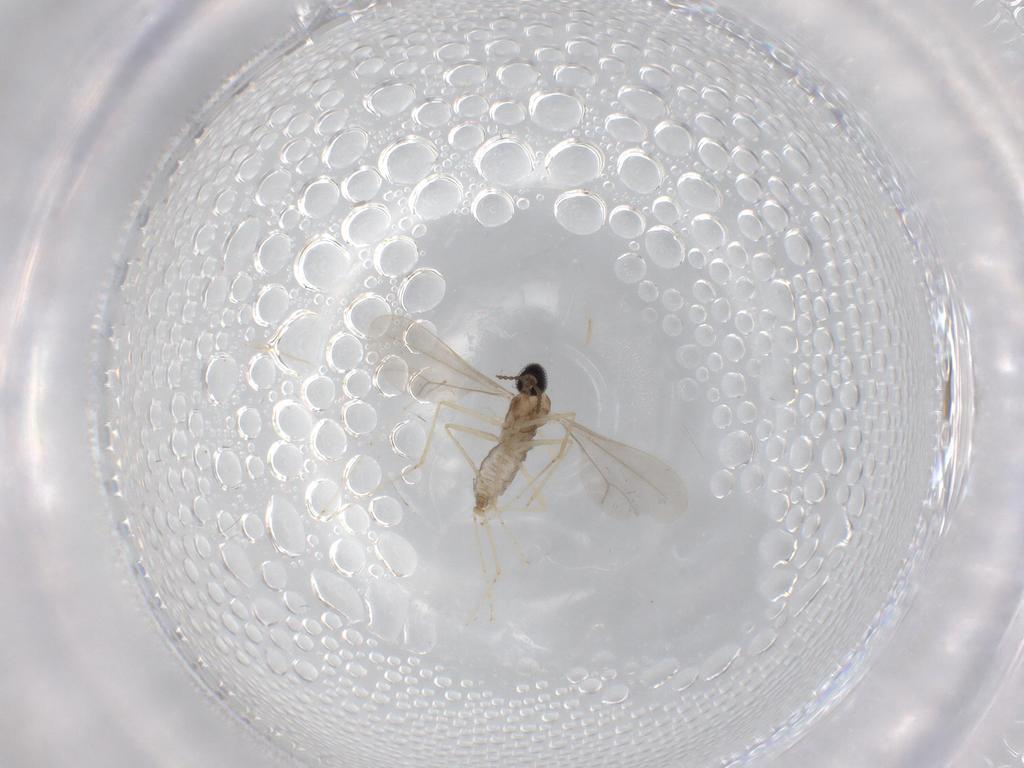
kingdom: Animalia
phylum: Arthropoda
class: Insecta
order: Diptera
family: Cecidomyiidae
